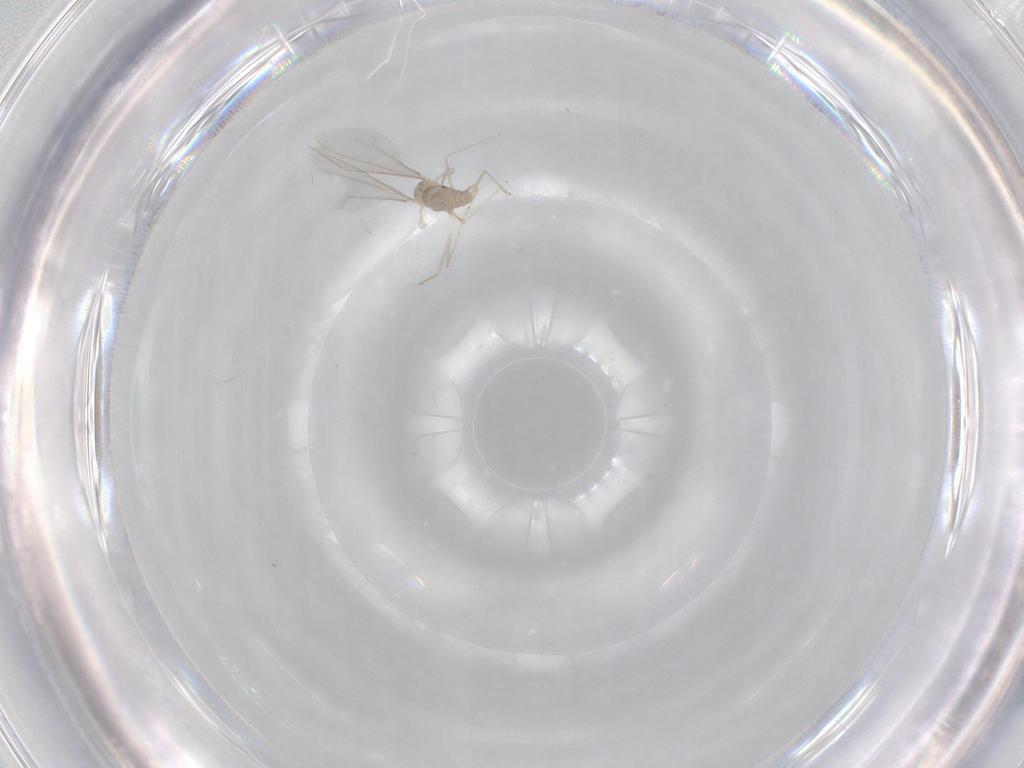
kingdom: Animalia
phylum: Arthropoda
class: Insecta
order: Diptera
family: Cecidomyiidae
